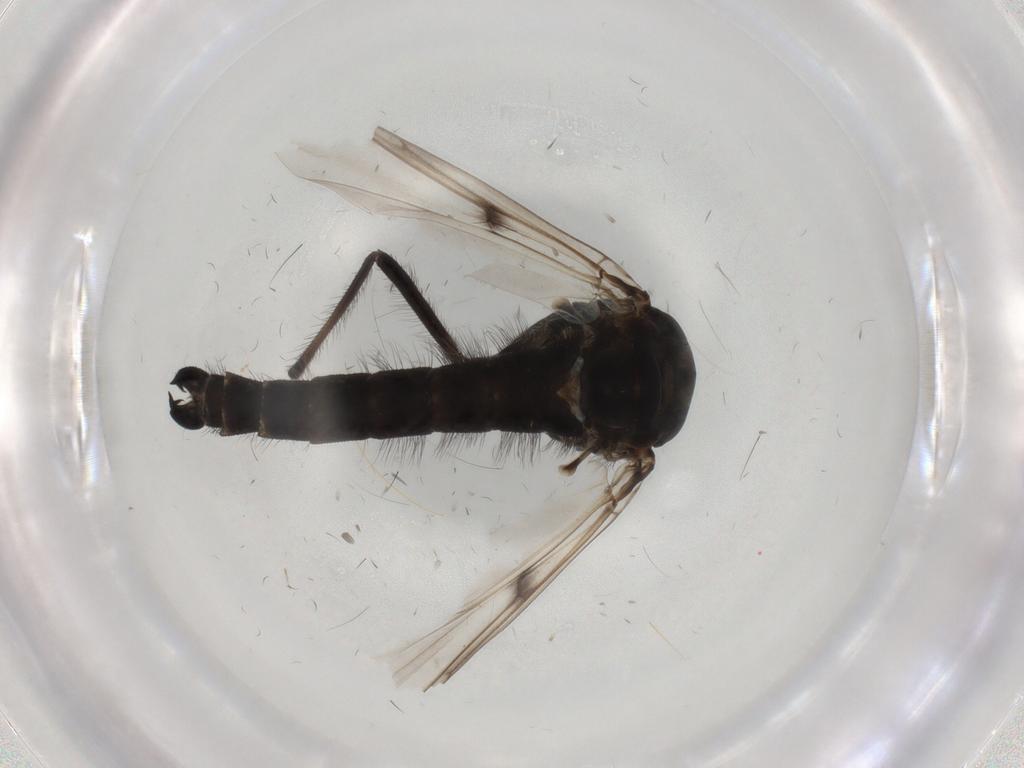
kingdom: Animalia
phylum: Arthropoda
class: Insecta
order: Diptera
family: Chironomidae
